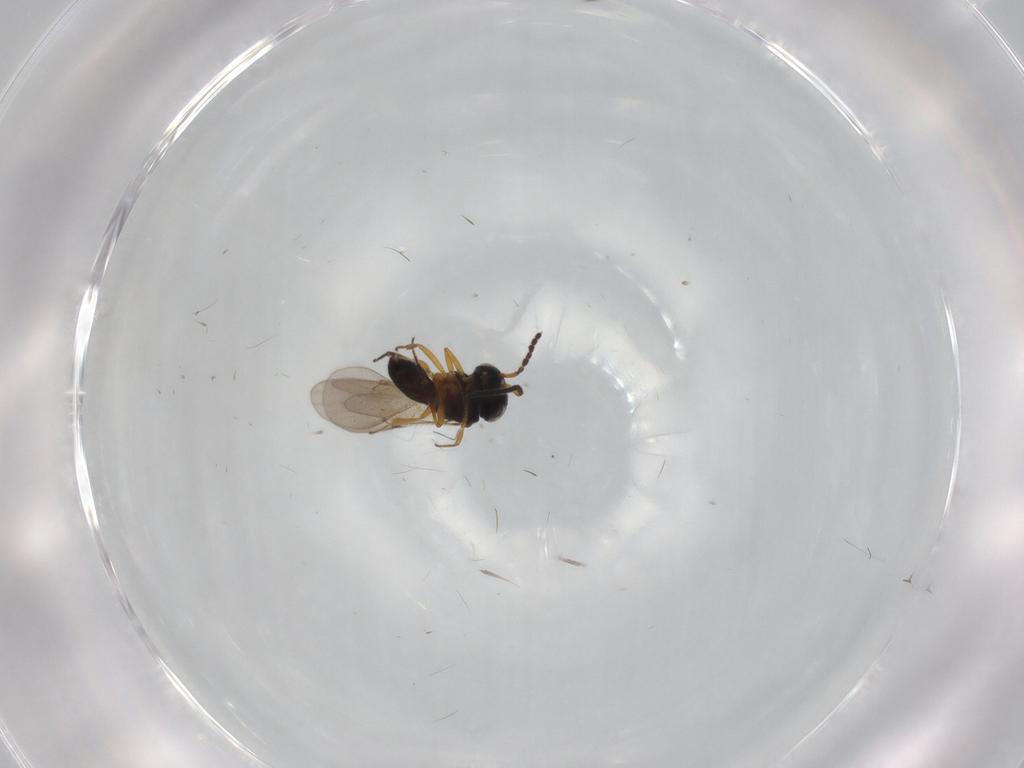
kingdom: Animalia
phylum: Arthropoda
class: Insecta
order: Hymenoptera
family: Scelionidae
